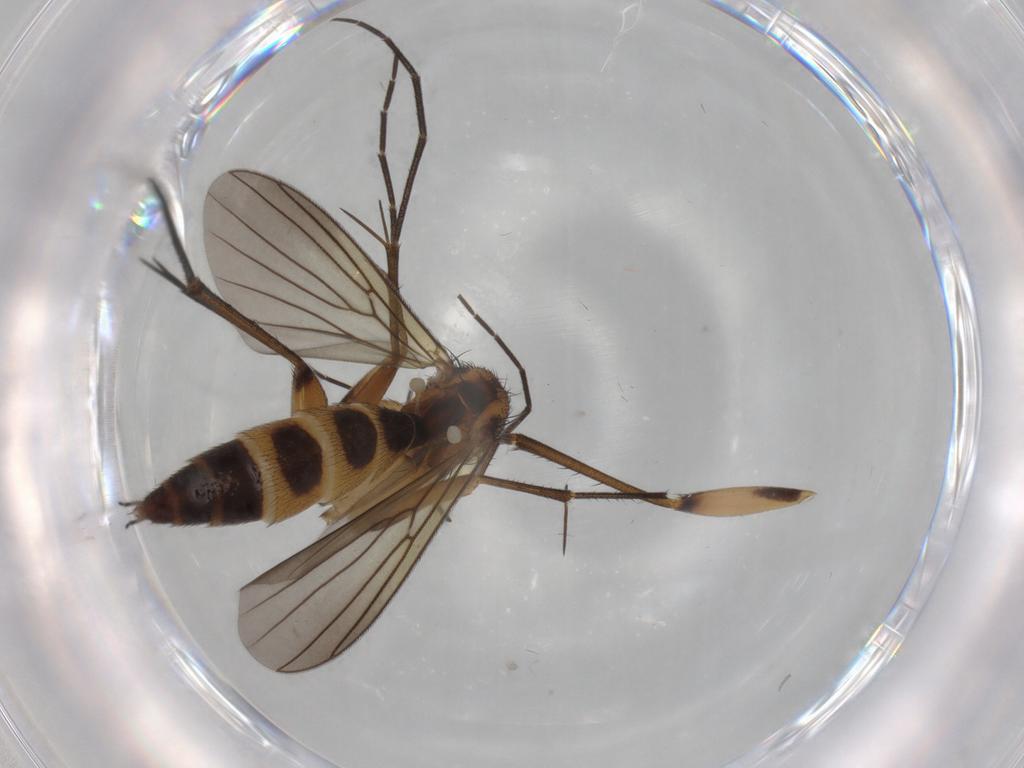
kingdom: Animalia
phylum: Arthropoda
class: Insecta
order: Diptera
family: Mycetophilidae
